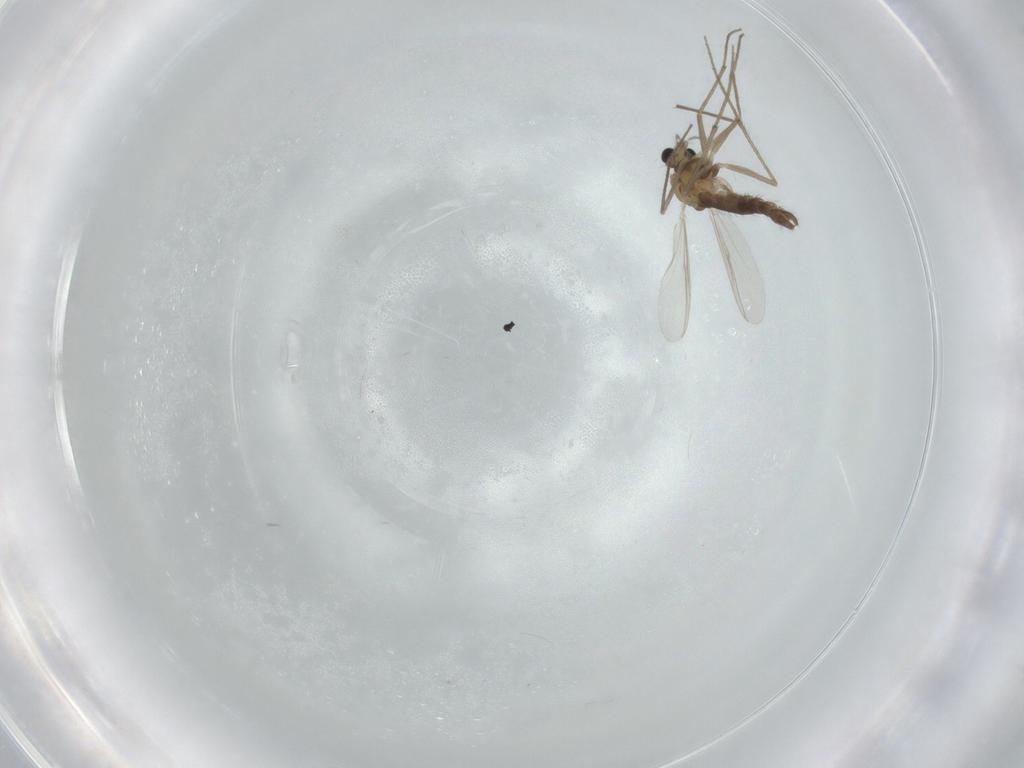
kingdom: Animalia
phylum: Arthropoda
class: Insecta
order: Diptera
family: Chironomidae
